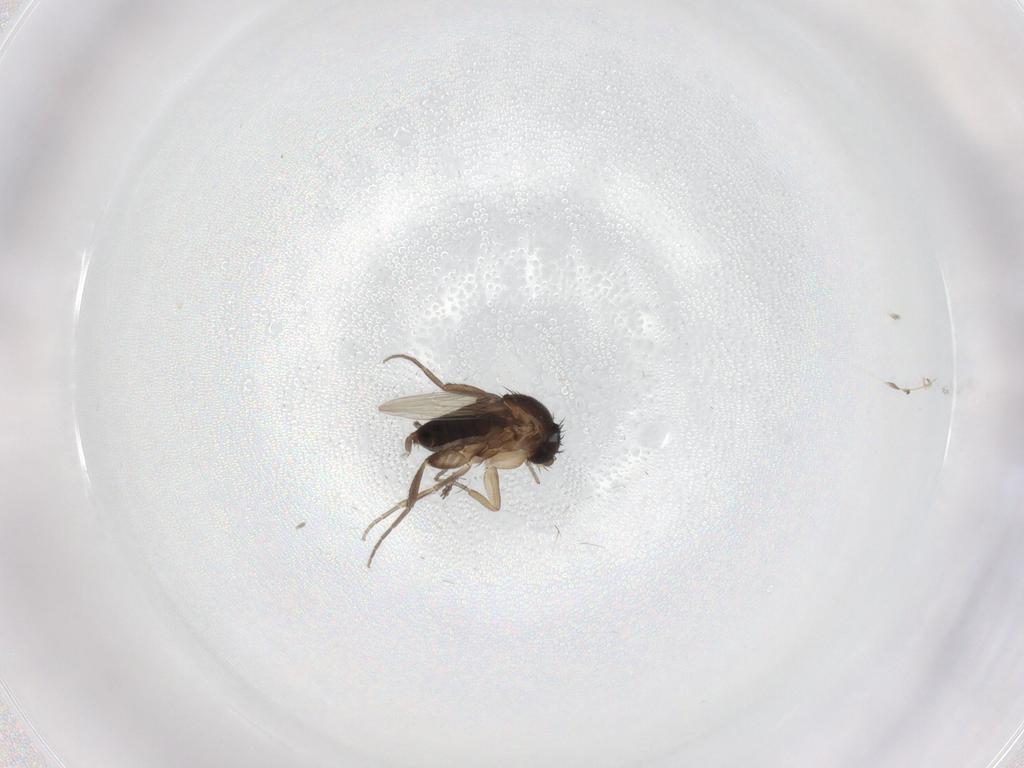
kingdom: Animalia
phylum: Arthropoda
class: Insecta
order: Diptera
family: Phoridae
